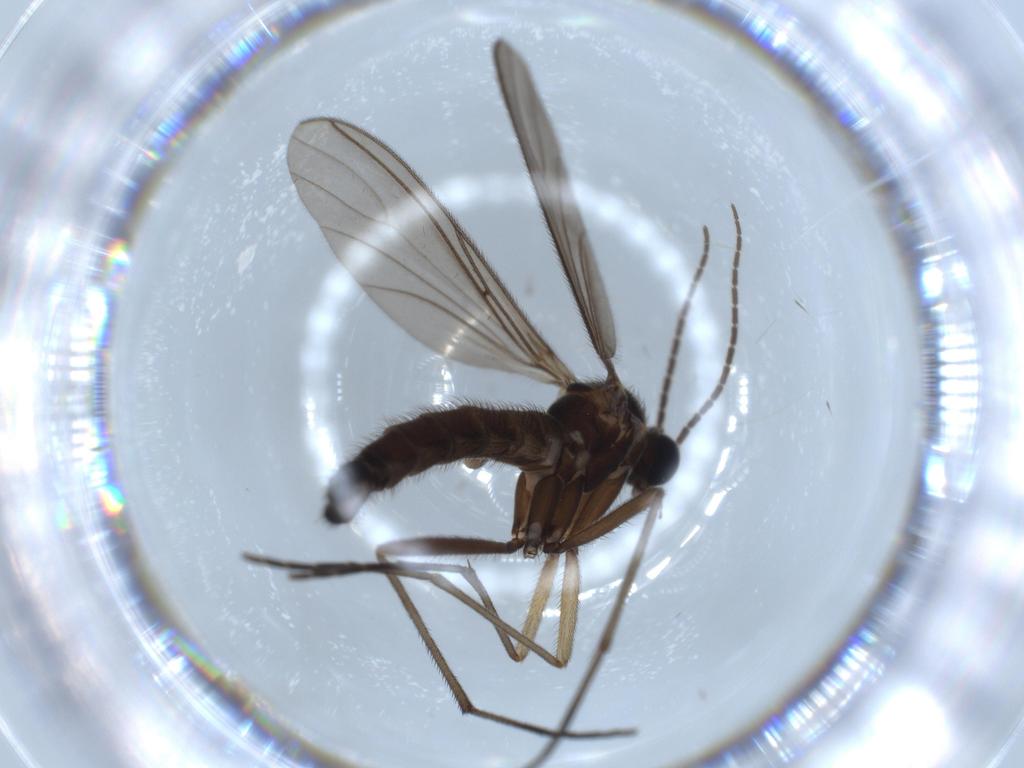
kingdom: Animalia
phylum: Arthropoda
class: Insecta
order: Diptera
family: Sciaridae
